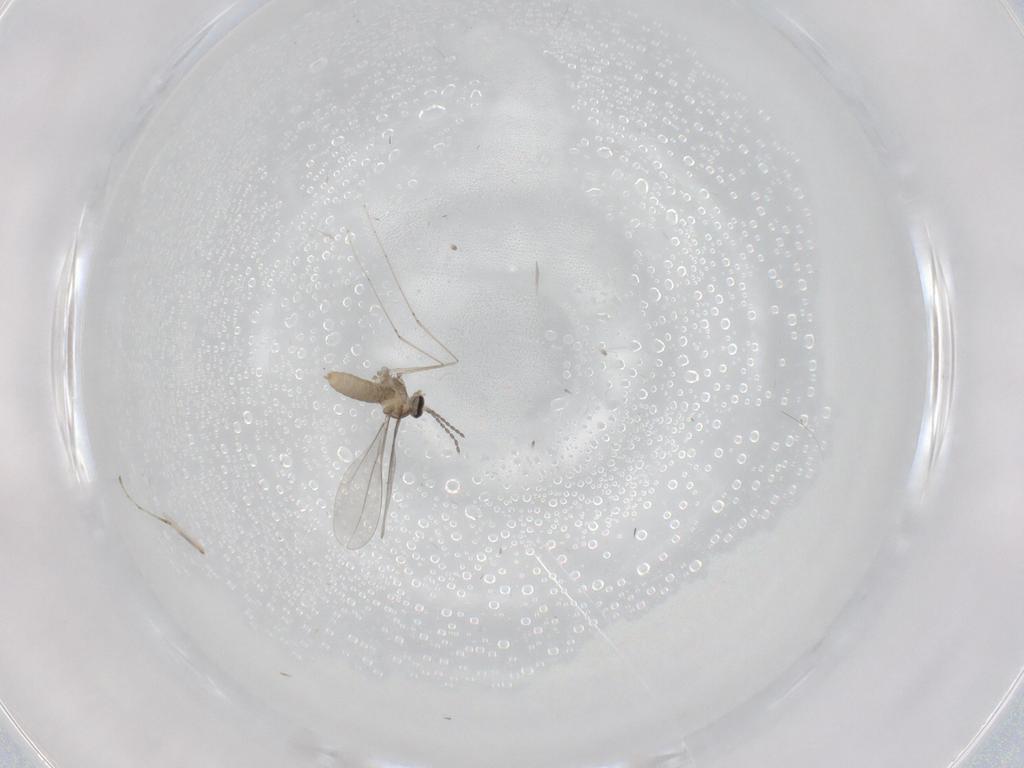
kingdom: Animalia
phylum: Arthropoda
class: Insecta
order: Diptera
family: Cecidomyiidae
